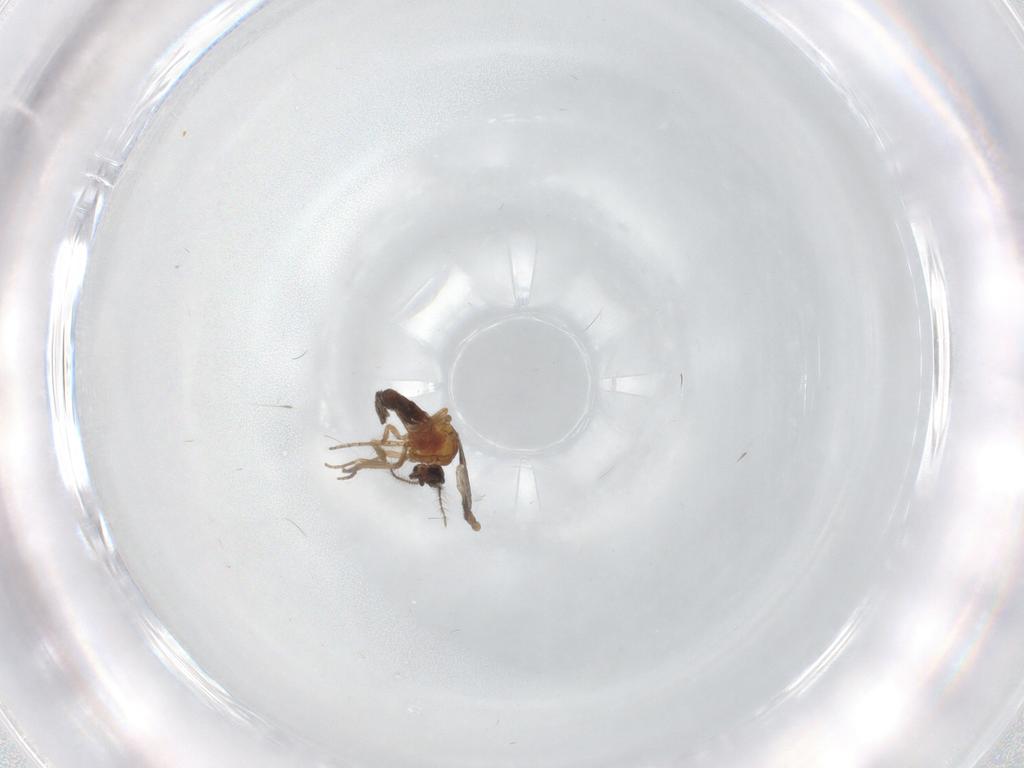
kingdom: Animalia
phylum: Arthropoda
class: Insecta
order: Diptera
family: Ceratopogonidae
